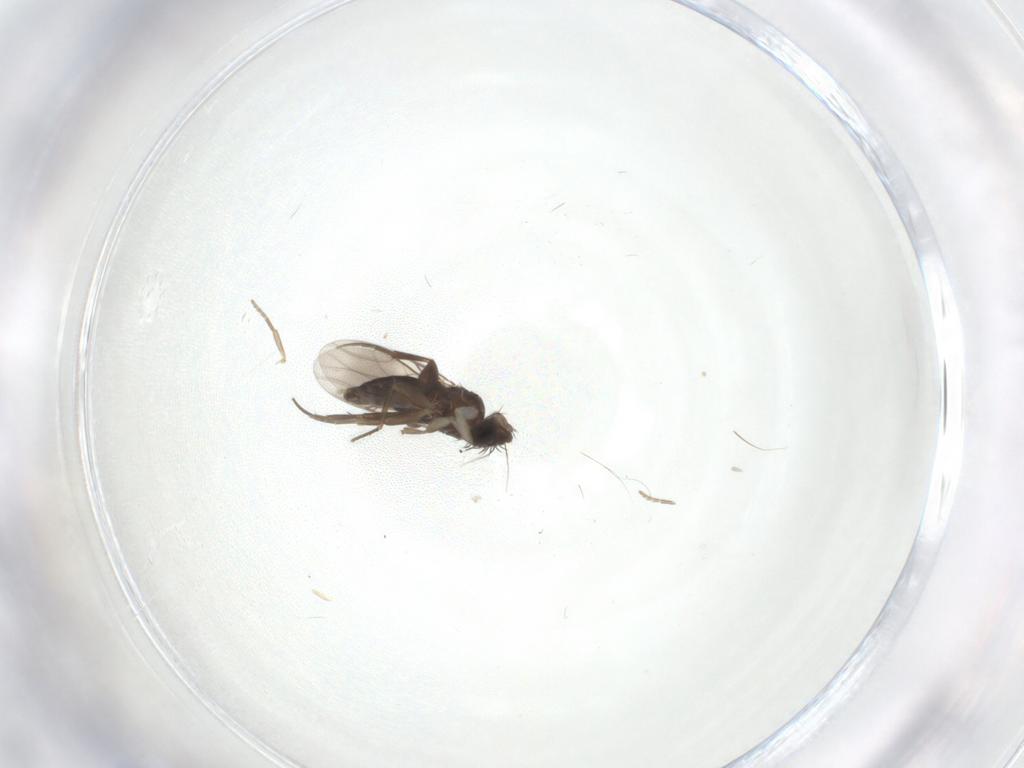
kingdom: Animalia
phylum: Arthropoda
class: Insecta
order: Diptera
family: Phoridae
